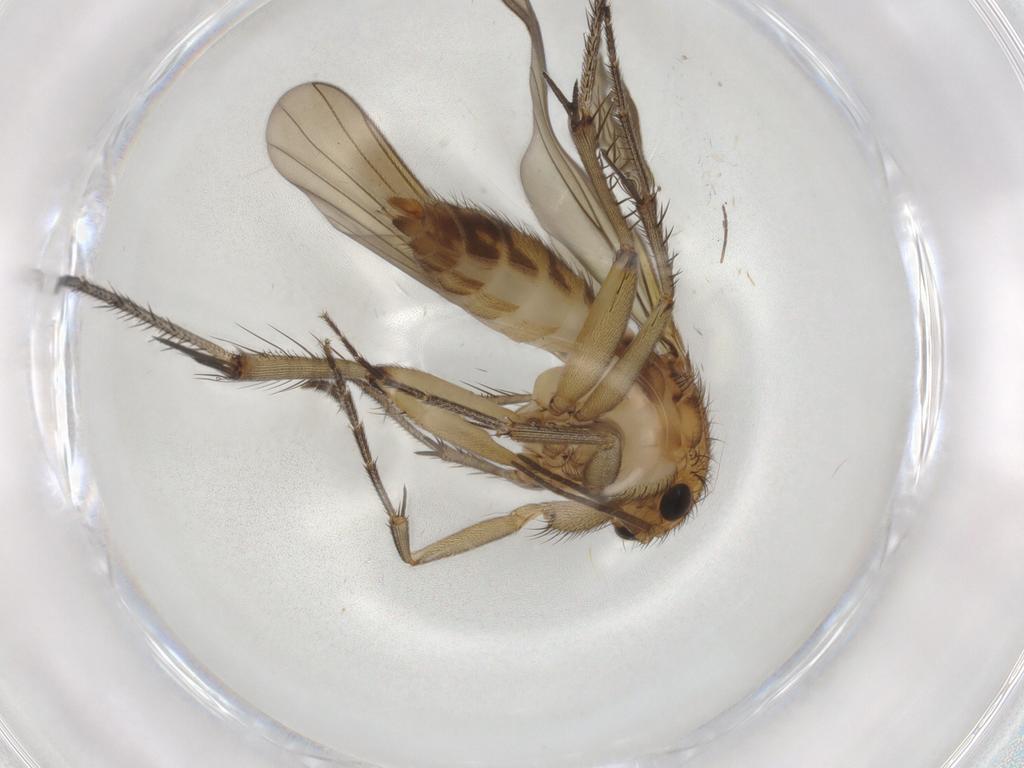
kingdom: Animalia
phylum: Arthropoda
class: Insecta
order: Diptera
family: Mycetophilidae
